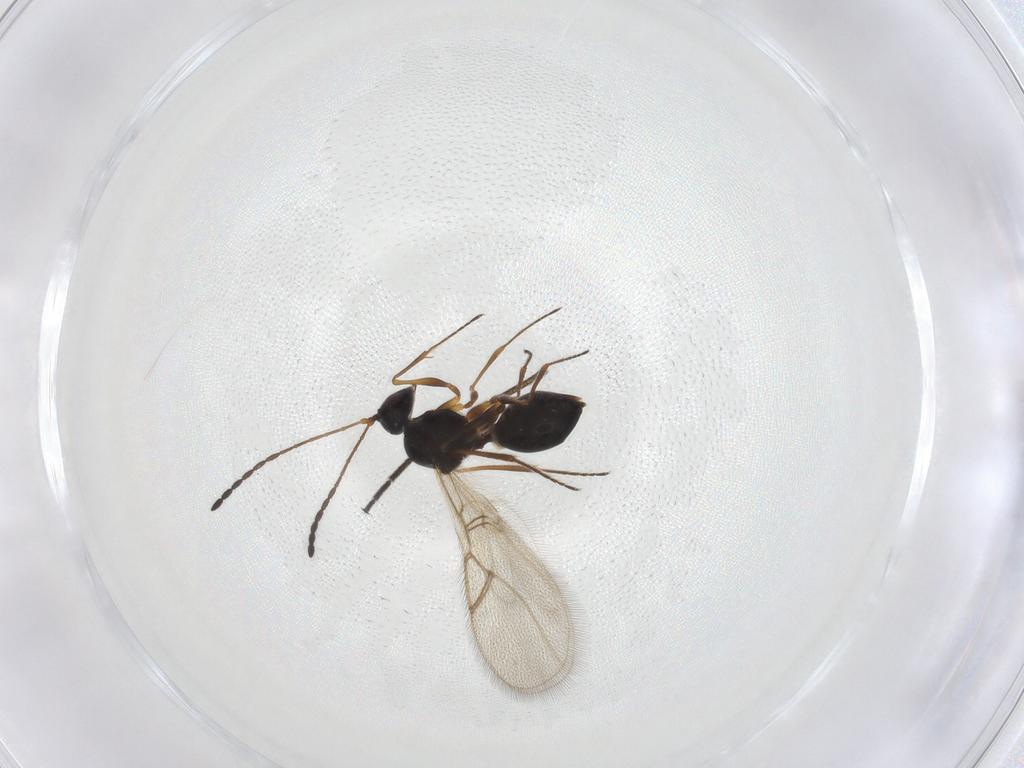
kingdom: Animalia
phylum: Arthropoda
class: Insecta
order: Hymenoptera
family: Figitidae
